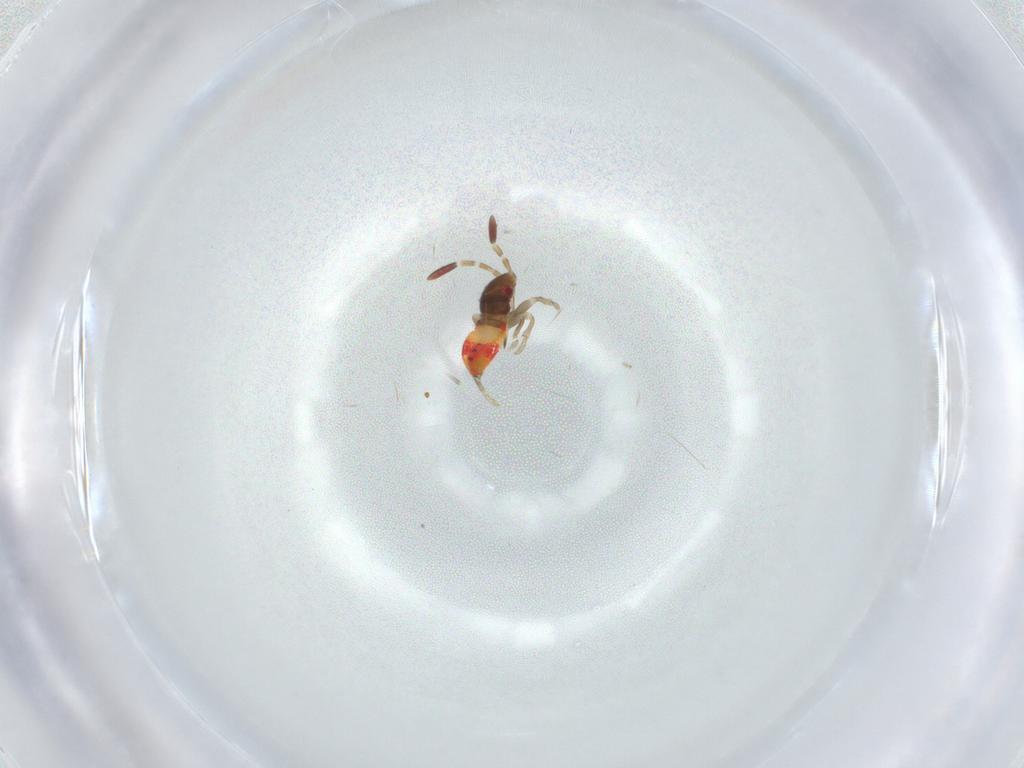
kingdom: Animalia
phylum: Arthropoda
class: Insecta
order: Hemiptera
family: Rhyparochromidae
